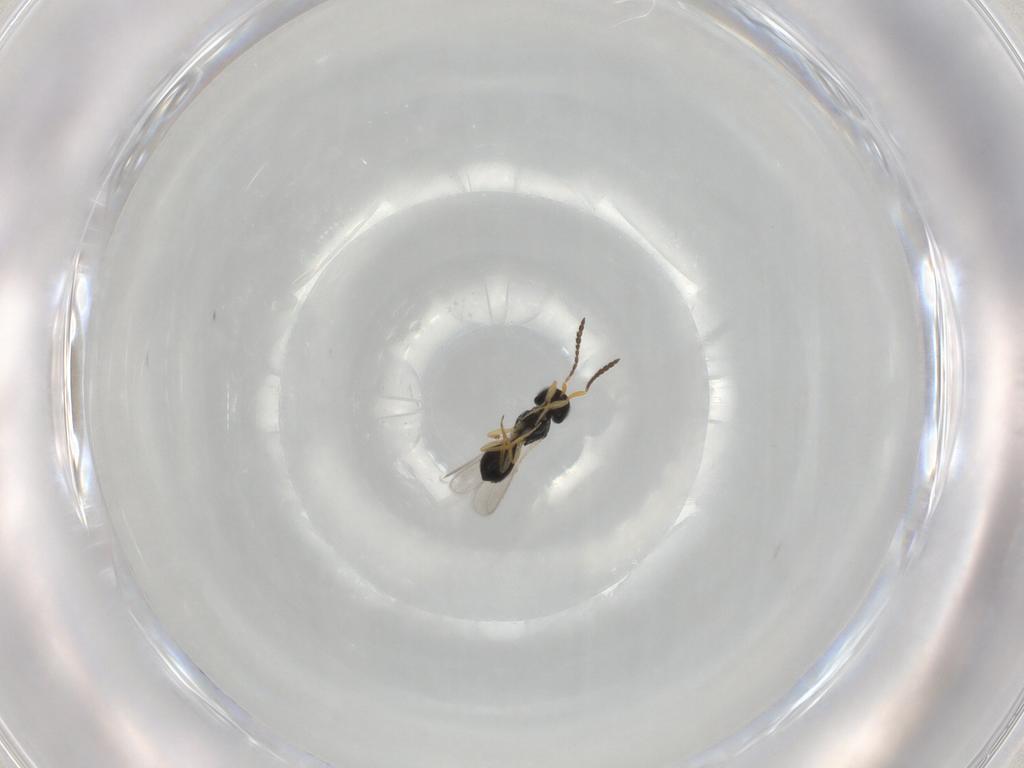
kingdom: Animalia
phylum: Arthropoda
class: Insecta
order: Hymenoptera
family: Scelionidae
